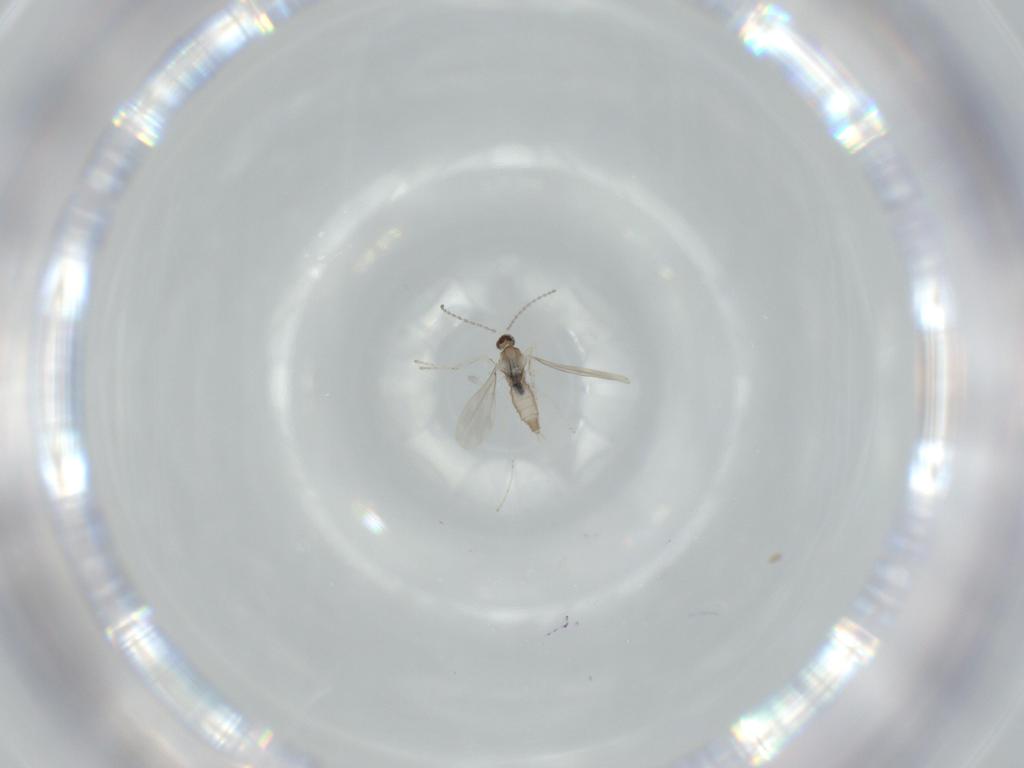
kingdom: Animalia
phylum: Arthropoda
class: Insecta
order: Diptera
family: Cecidomyiidae
